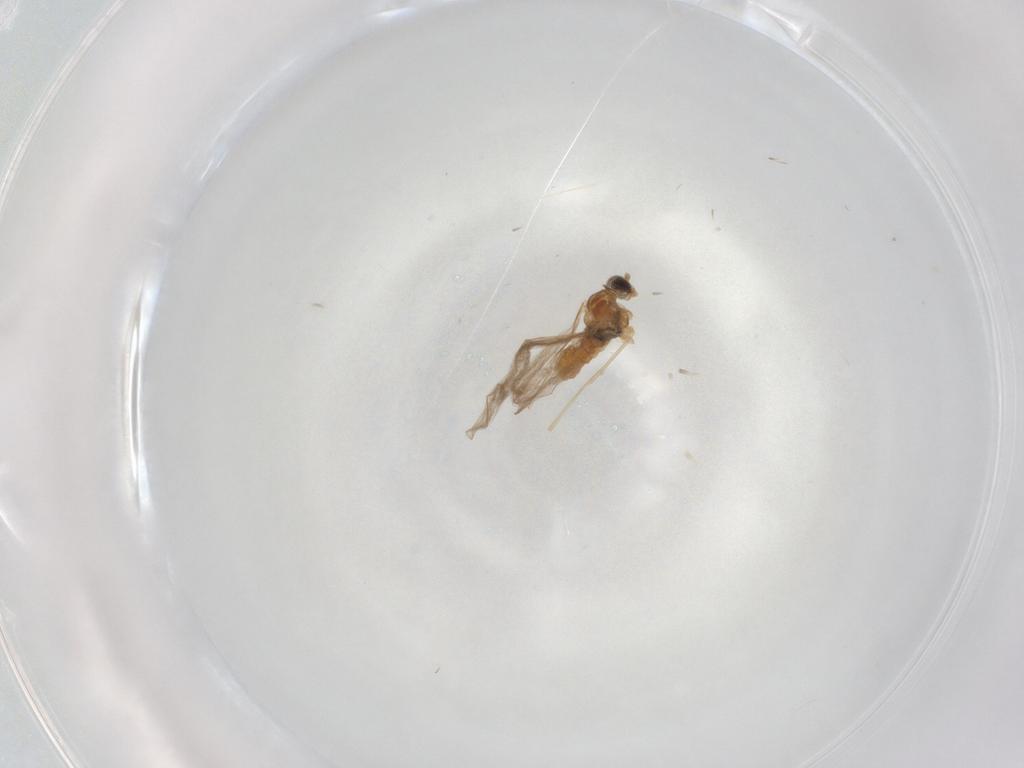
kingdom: Animalia
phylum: Arthropoda
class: Insecta
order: Diptera
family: Cecidomyiidae
